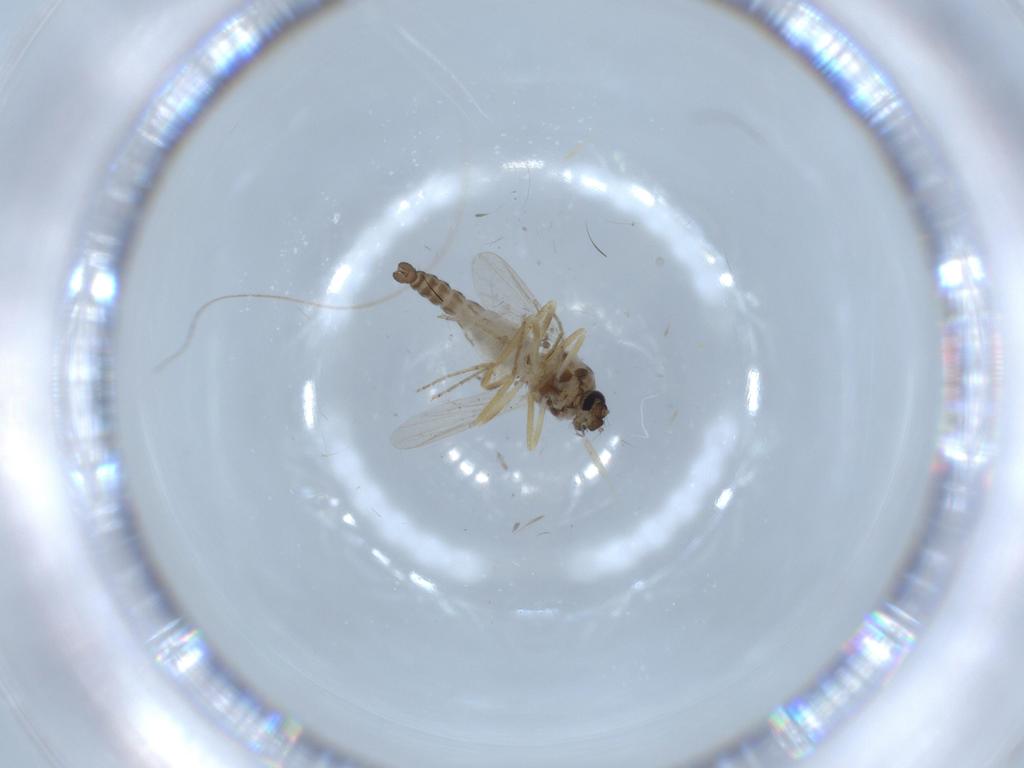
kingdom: Animalia
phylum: Arthropoda
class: Insecta
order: Diptera
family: Ceratopogonidae
